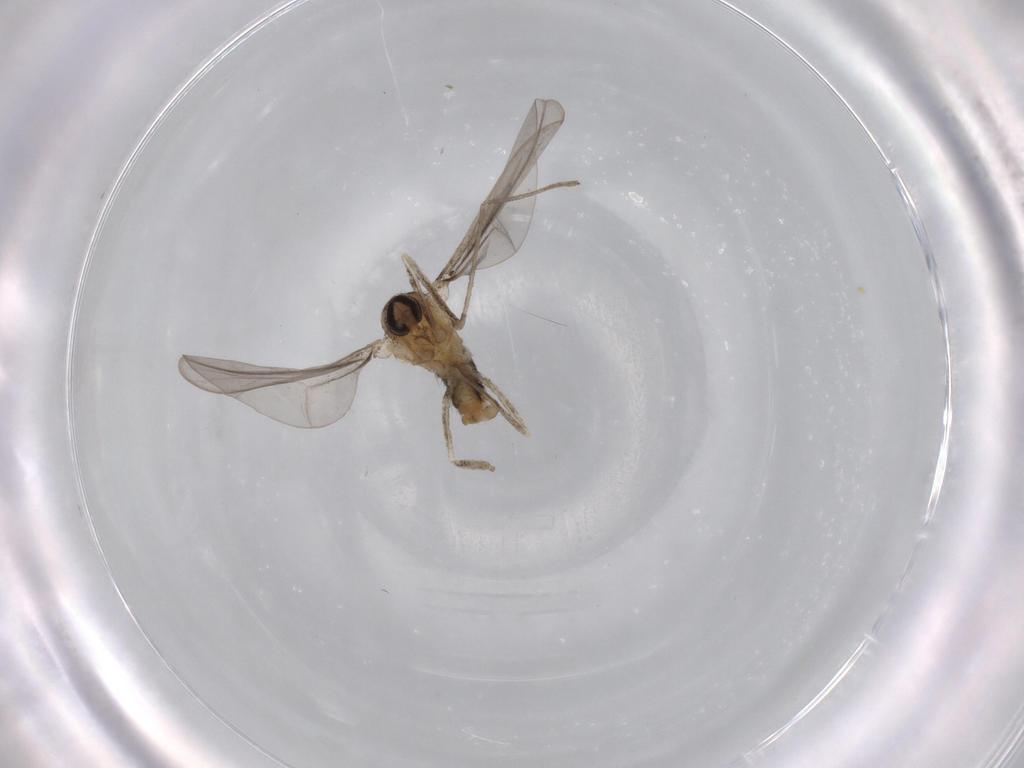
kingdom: Animalia
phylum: Arthropoda
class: Insecta
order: Diptera
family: Cecidomyiidae
